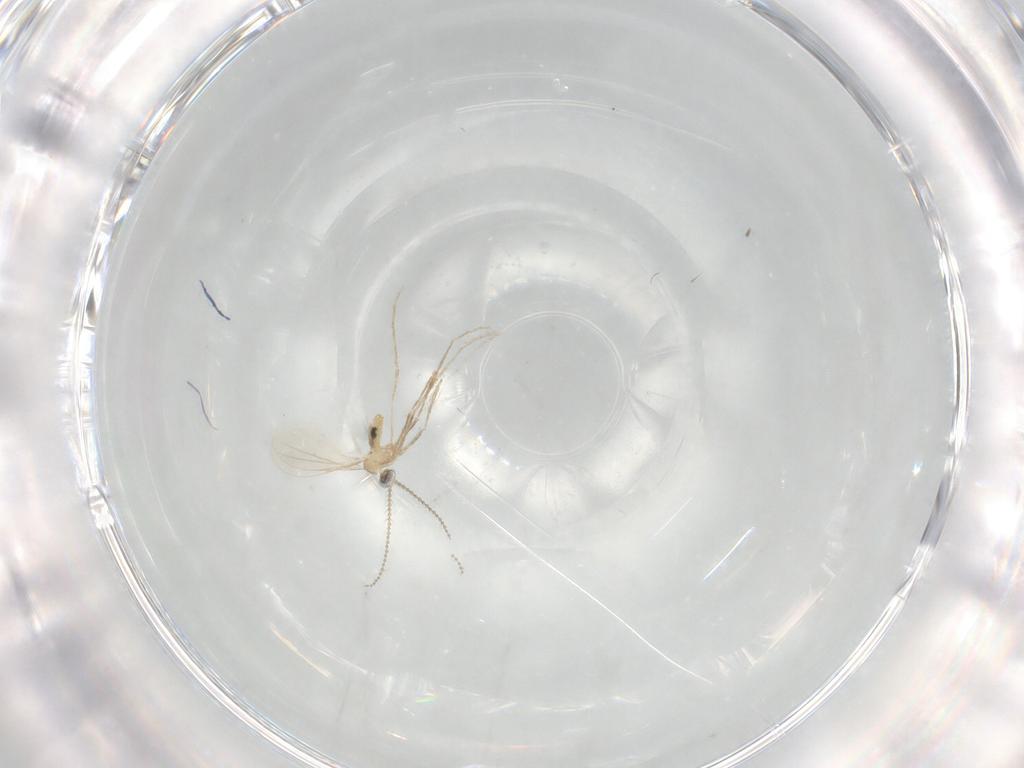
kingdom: Animalia
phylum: Arthropoda
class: Insecta
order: Diptera
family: Cecidomyiidae
